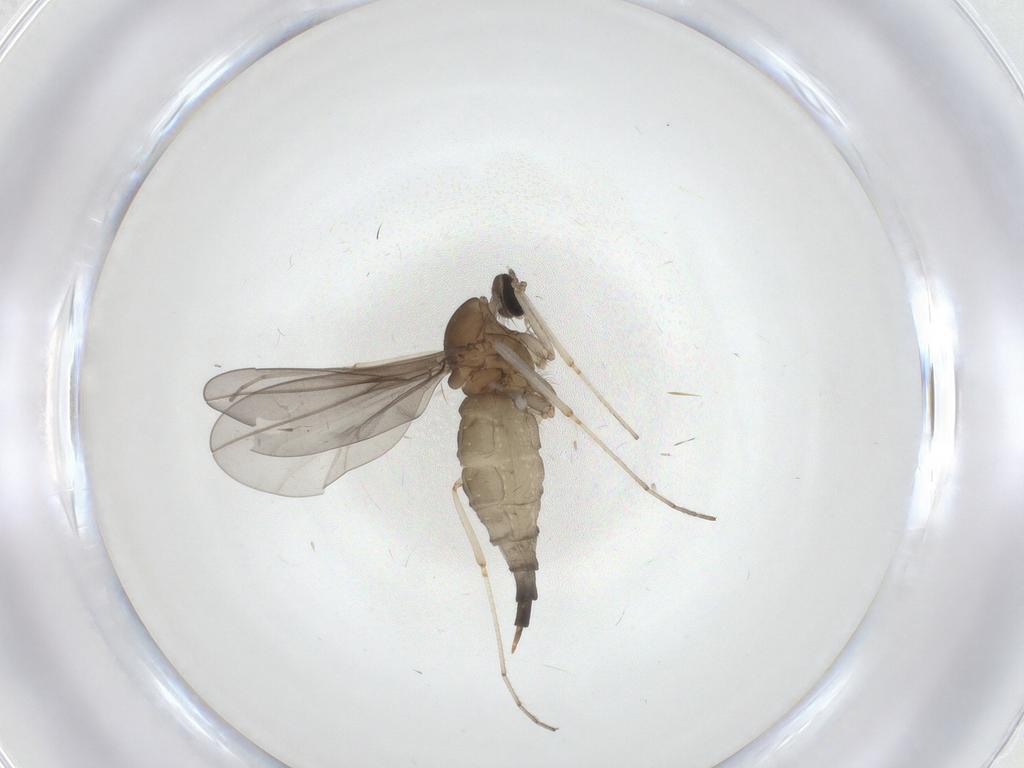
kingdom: Animalia
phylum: Arthropoda
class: Insecta
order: Diptera
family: Cecidomyiidae
